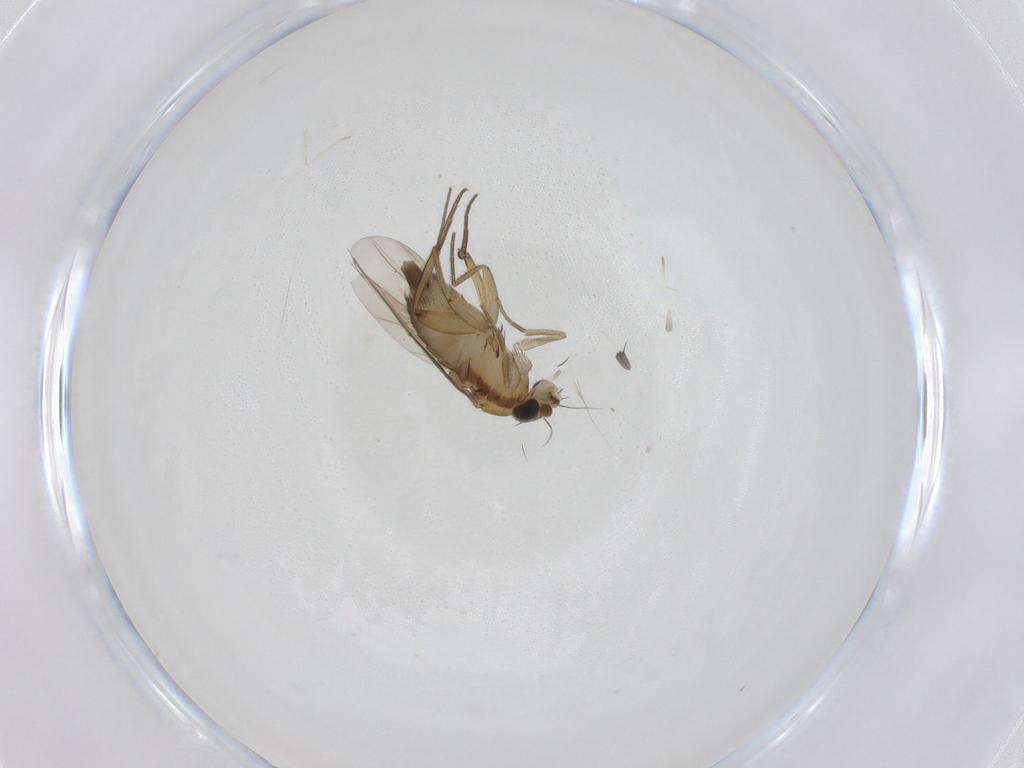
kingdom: Animalia
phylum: Arthropoda
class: Insecta
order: Diptera
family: Phoridae
